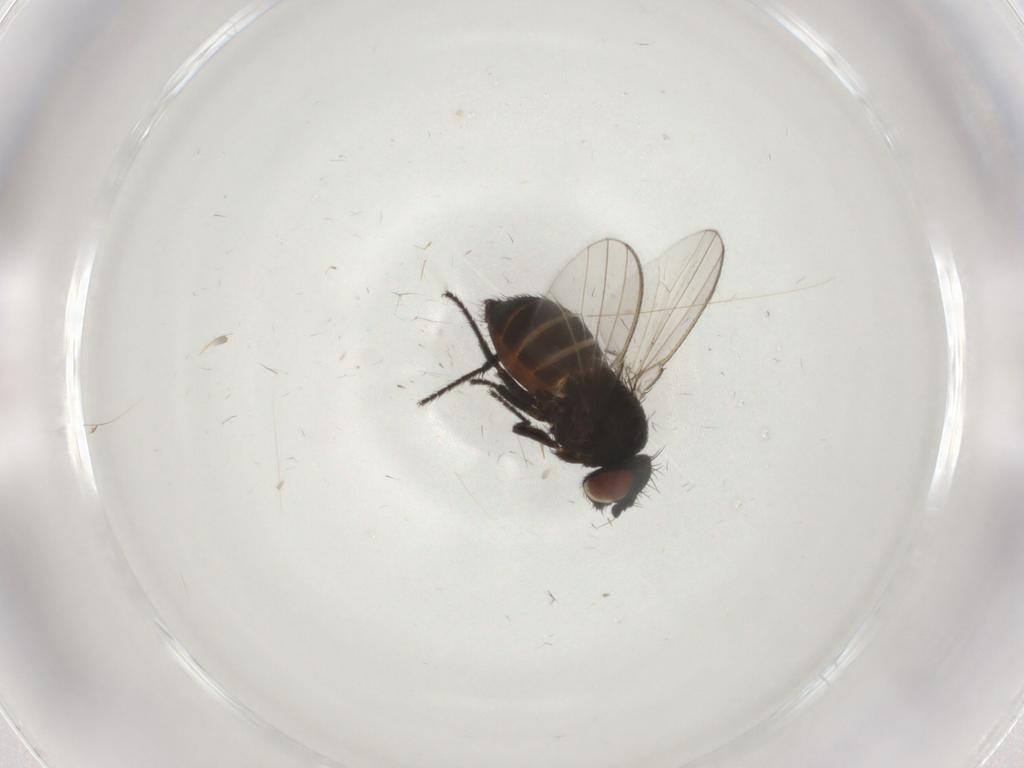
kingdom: Animalia
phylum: Arthropoda
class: Insecta
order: Diptera
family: Milichiidae
